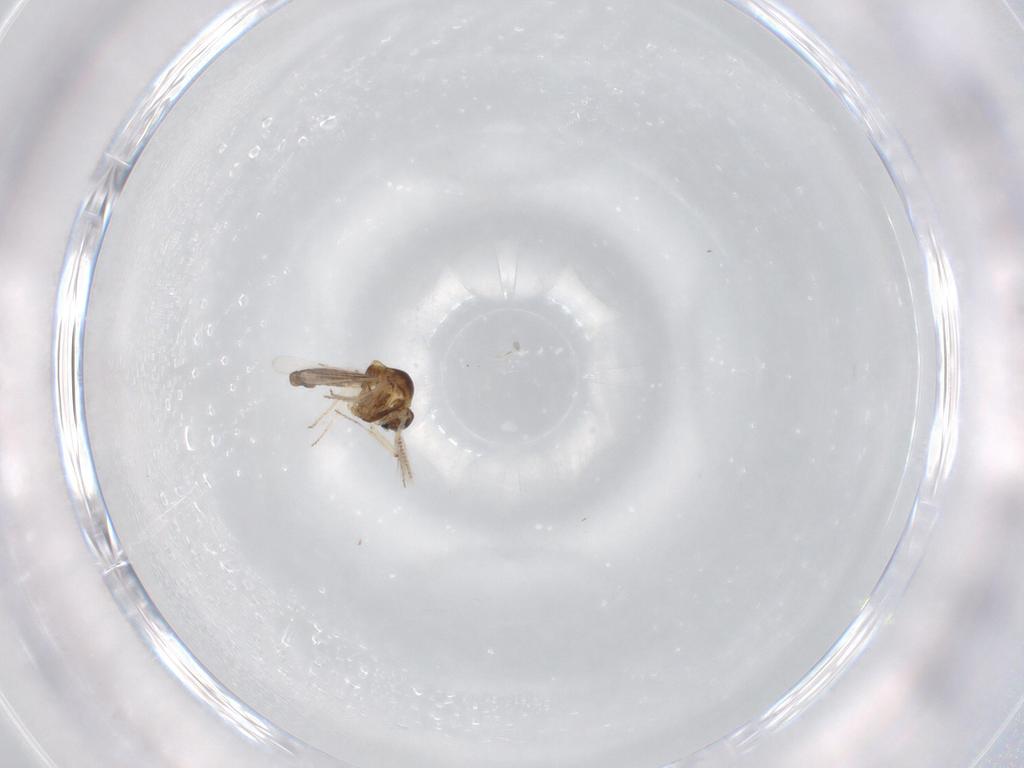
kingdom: Animalia
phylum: Arthropoda
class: Insecta
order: Diptera
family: Ceratopogonidae
